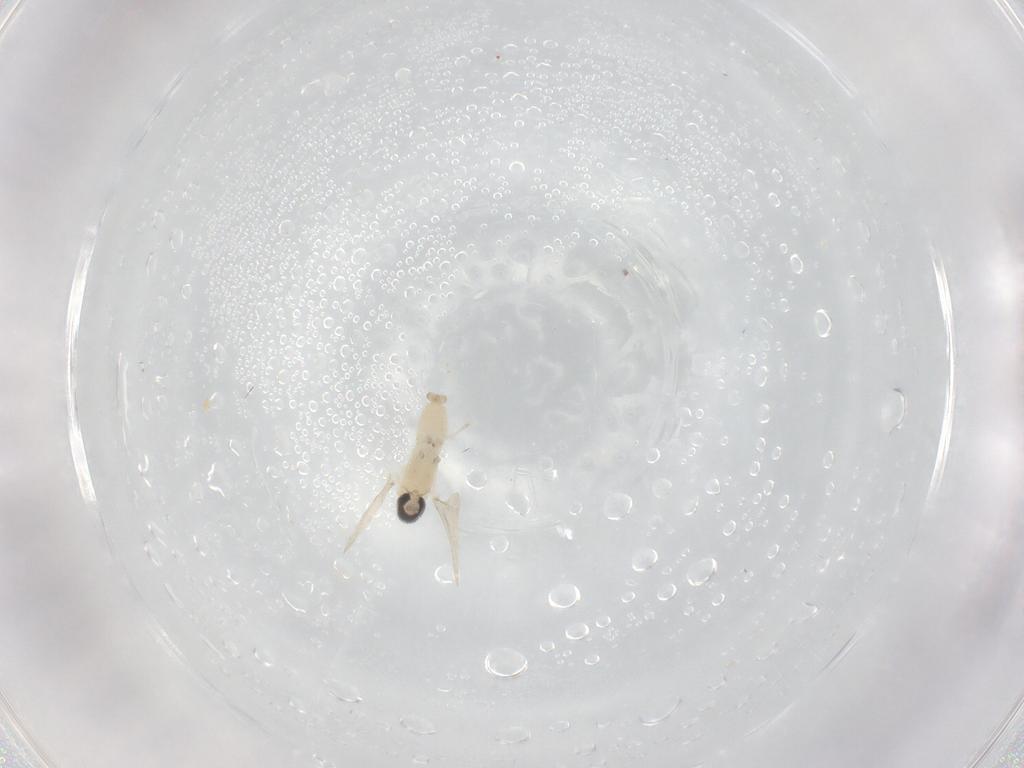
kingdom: Animalia
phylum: Arthropoda
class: Insecta
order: Diptera
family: Cecidomyiidae
